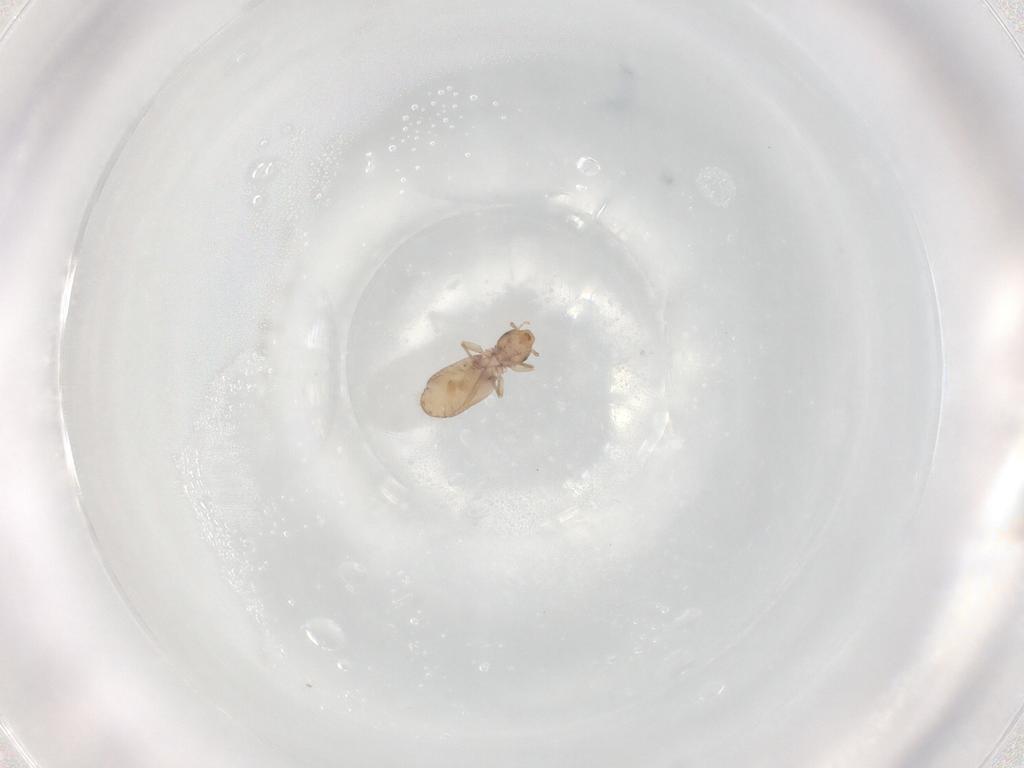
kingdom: Animalia
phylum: Arthropoda
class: Insecta
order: Psocodea
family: Liposcelididae
